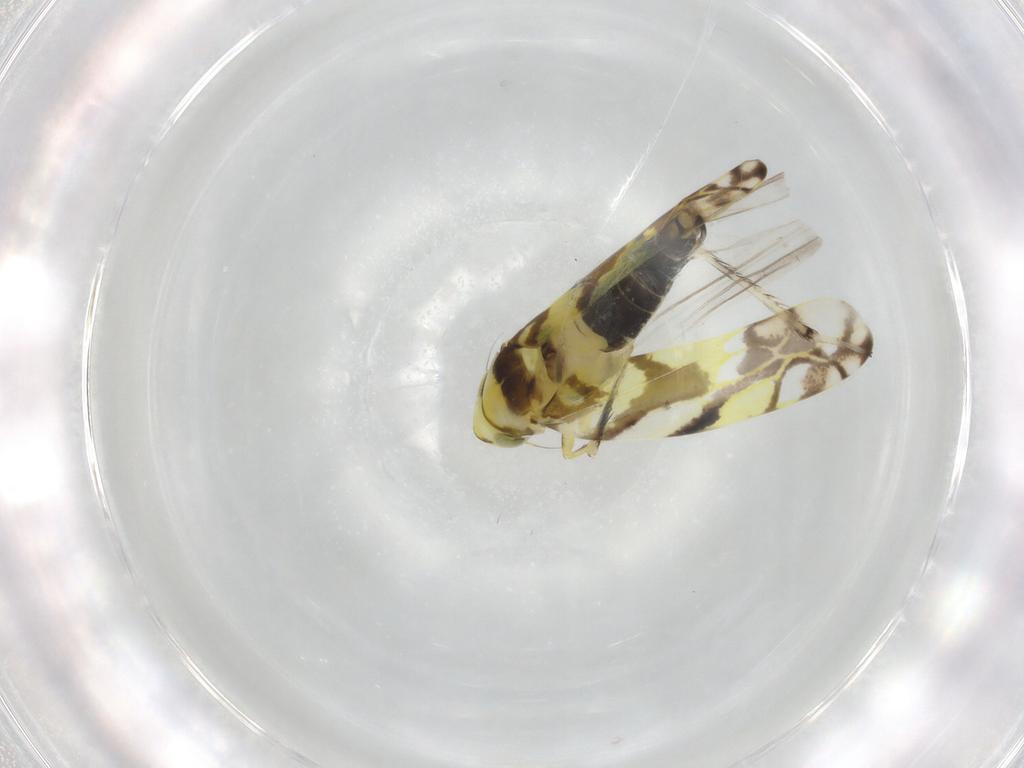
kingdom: Animalia
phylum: Arthropoda
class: Insecta
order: Hemiptera
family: Cicadellidae
